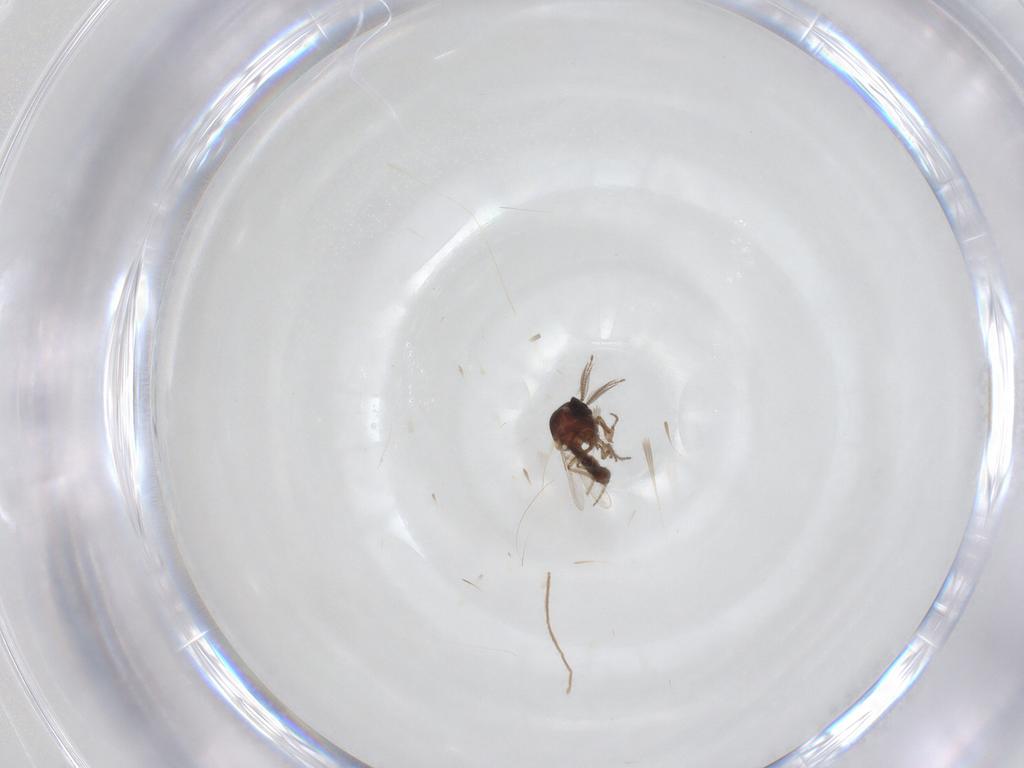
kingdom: Animalia
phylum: Arthropoda
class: Insecta
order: Diptera
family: Ceratopogonidae
